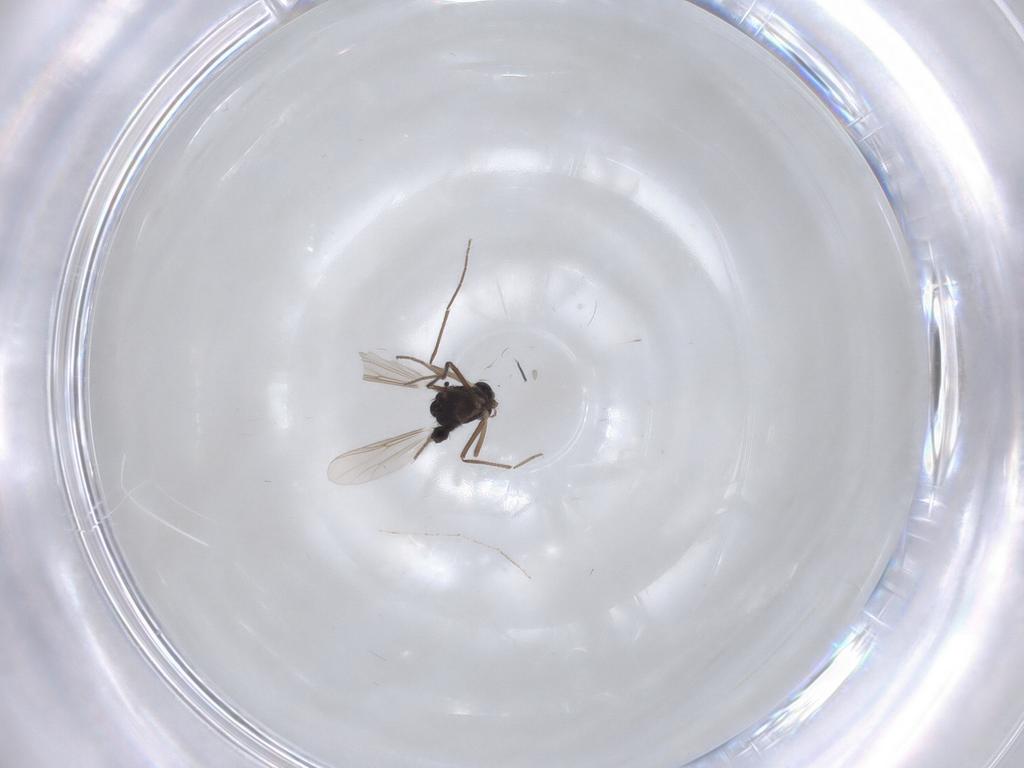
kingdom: Animalia
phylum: Arthropoda
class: Insecta
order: Diptera
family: Chironomidae
